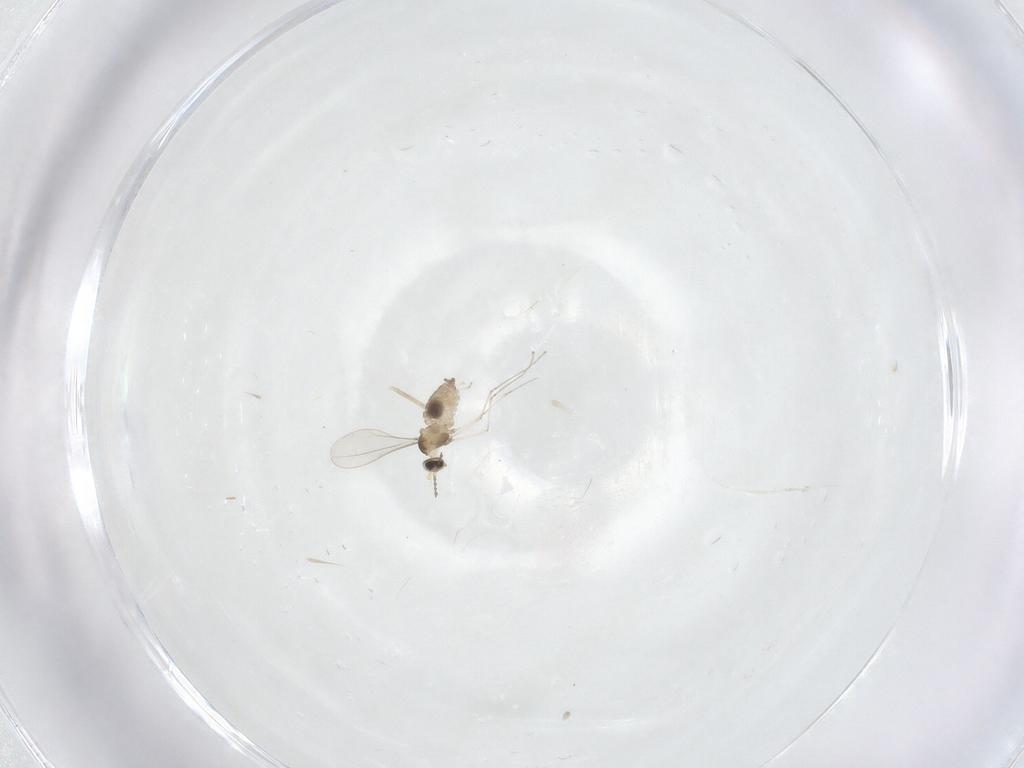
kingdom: Animalia
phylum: Arthropoda
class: Insecta
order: Diptera
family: Cecidomyiidae
